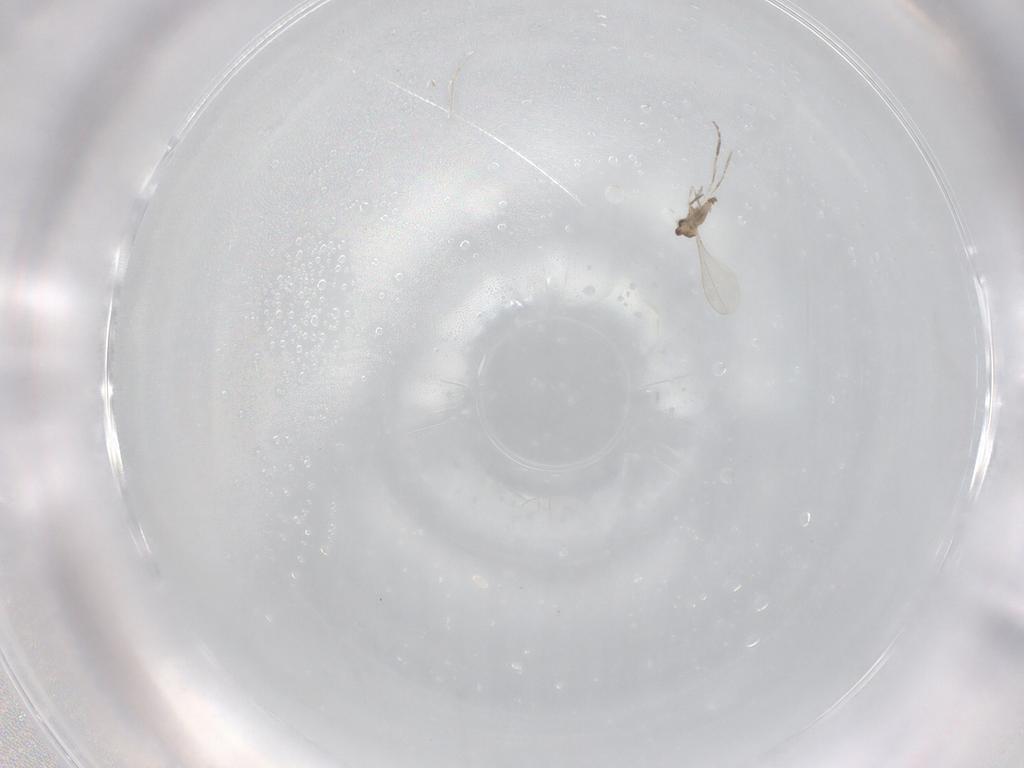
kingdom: Animalia
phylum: Arthropoda
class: Insecta
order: Diptera
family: Cecidomyiidae
